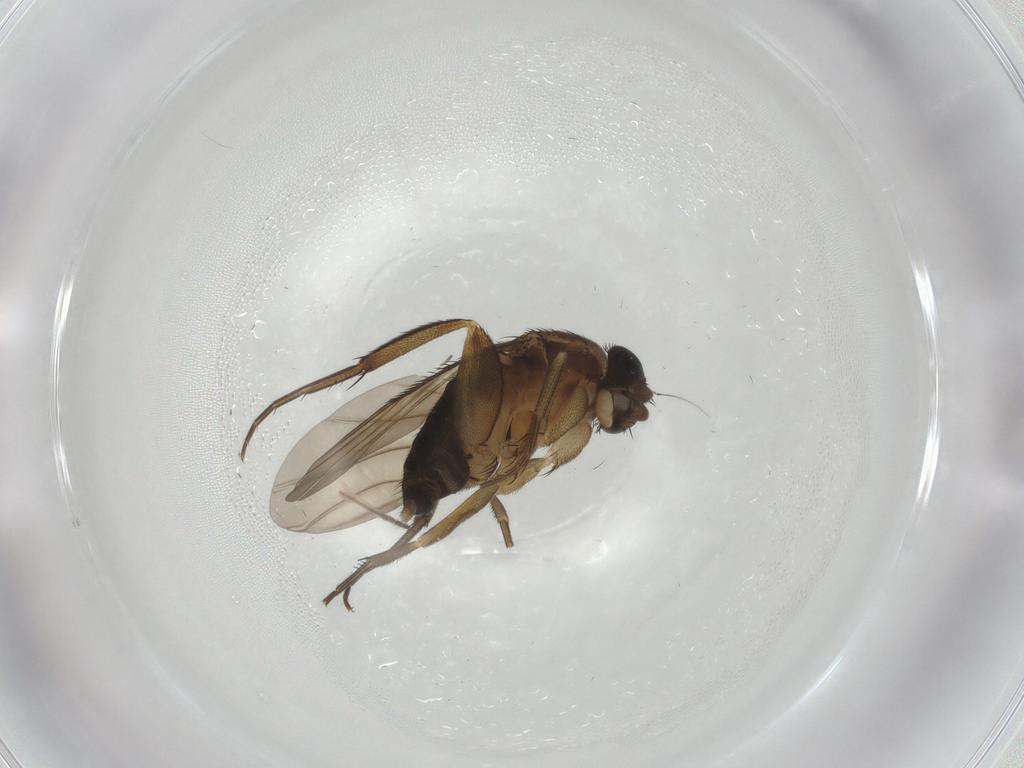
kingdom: Animalia
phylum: Arthropoda
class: Insecta
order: Diptera
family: Phoridae
